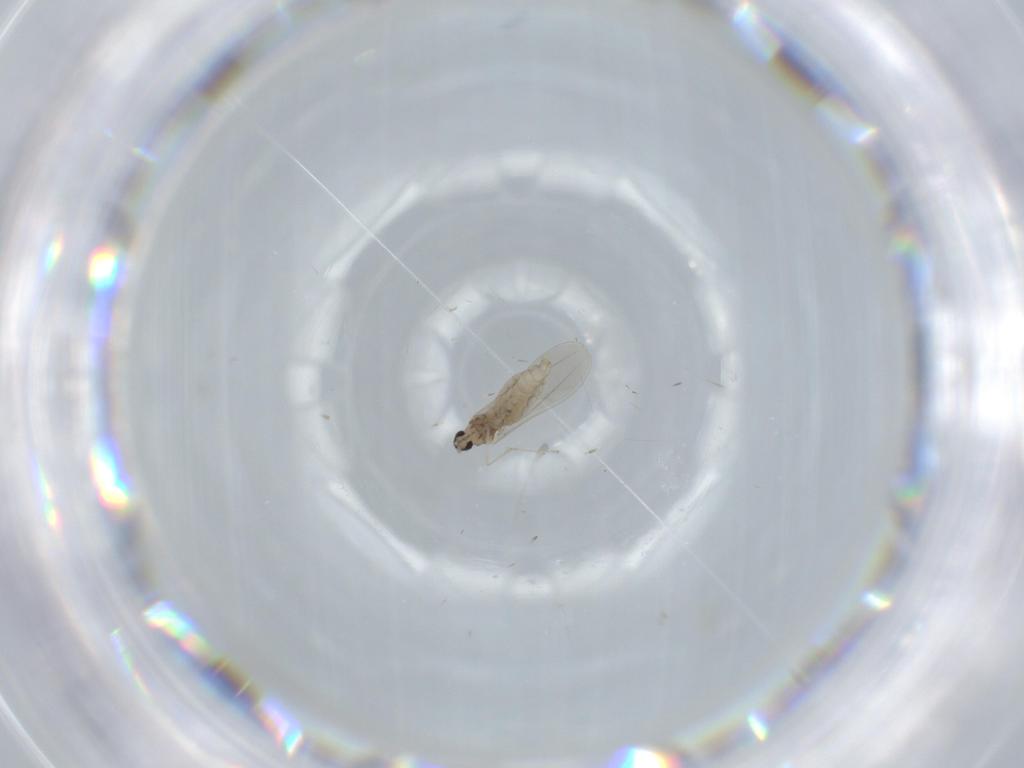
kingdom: Animalia
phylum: Arthropoda
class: Insecta
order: Diptera
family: Cecidomyiidae
